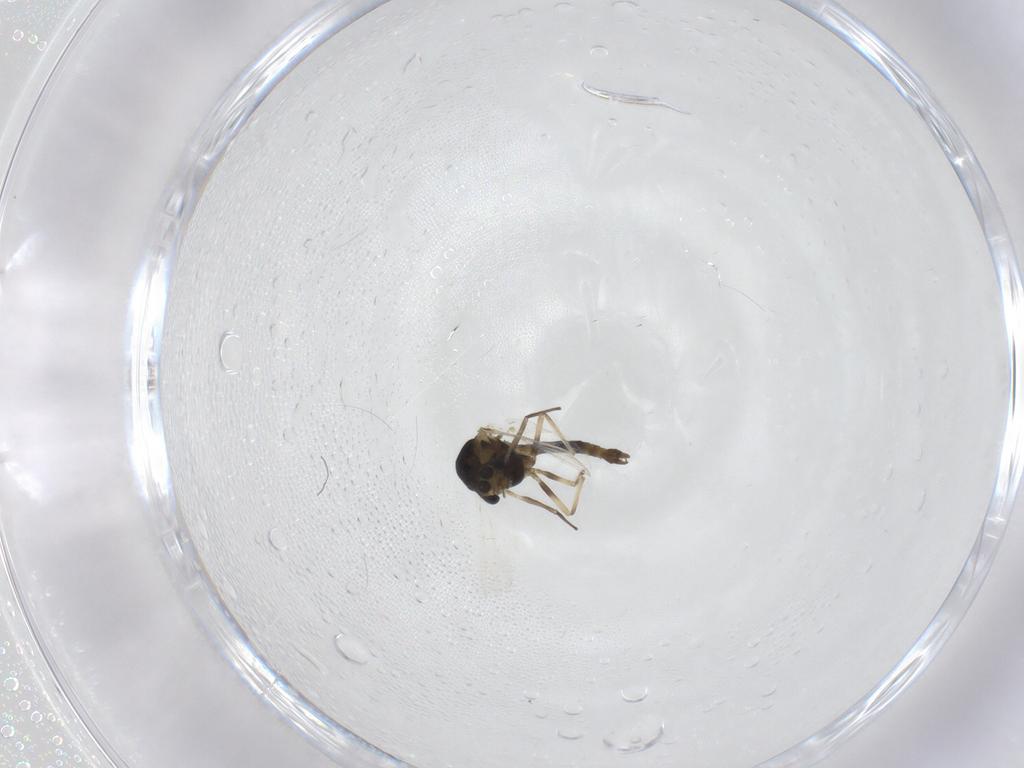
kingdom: Animalia
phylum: Arthropoda
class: Insecta
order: Diptera
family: Chironomidae
